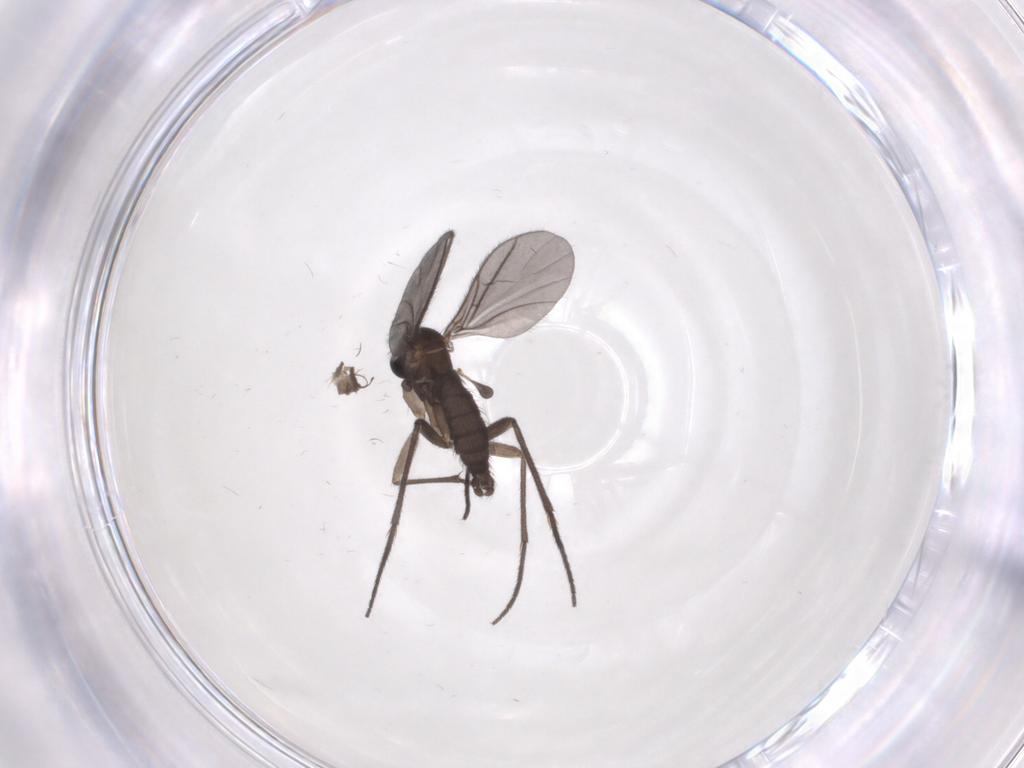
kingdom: Animalia
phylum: Arthropoda
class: Insecta
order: Diptera
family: Sciaridae
